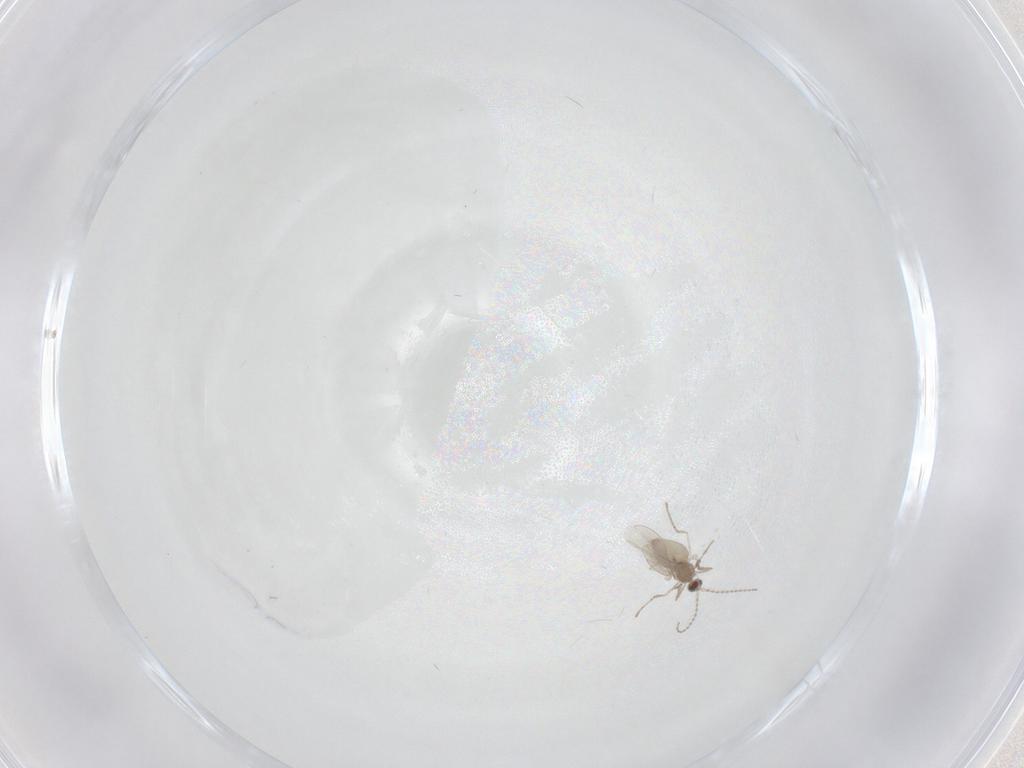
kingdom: Animalia
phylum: Arthropoda
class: Insecta
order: Diptera
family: Cecidomyiidae
